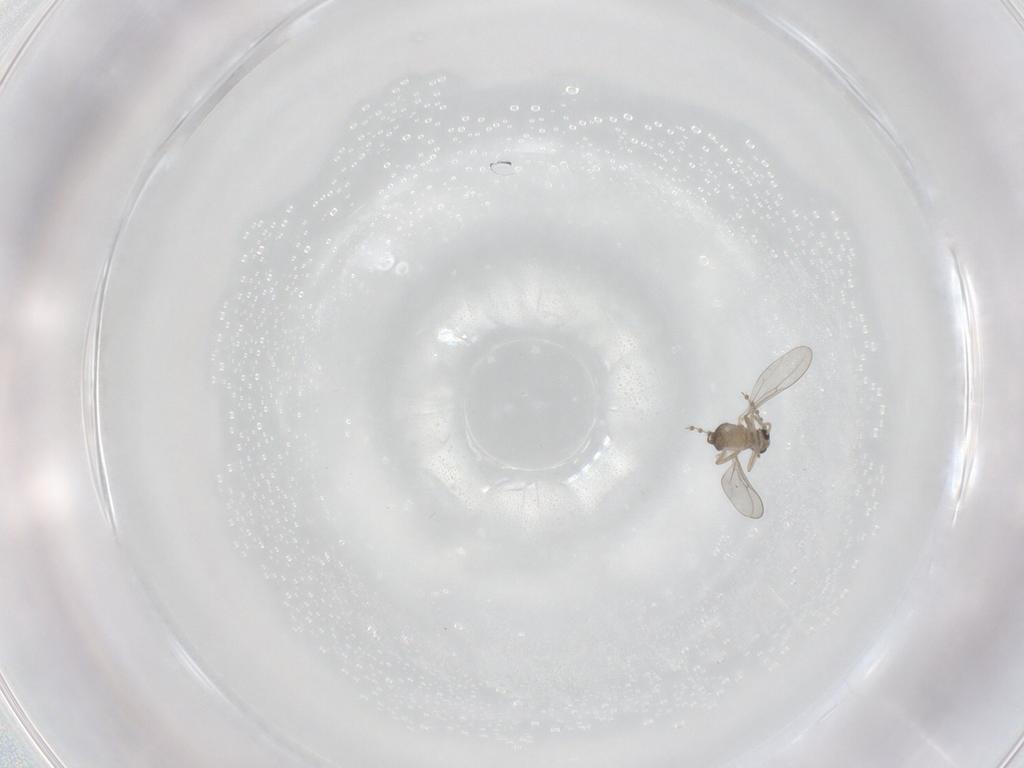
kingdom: Animalia
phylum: Arthropoda
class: Insecta
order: Diptera
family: Cecidomyiidae
